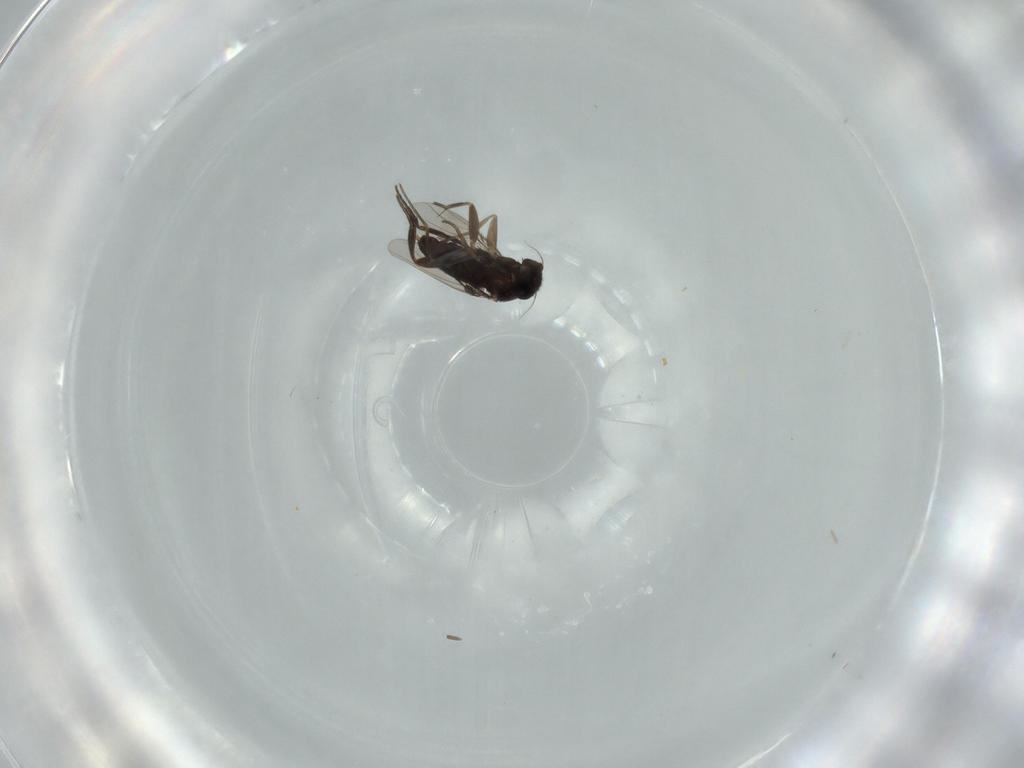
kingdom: Animalia
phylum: Arthropoda
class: Insecta
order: Diptera
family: Phoridae
